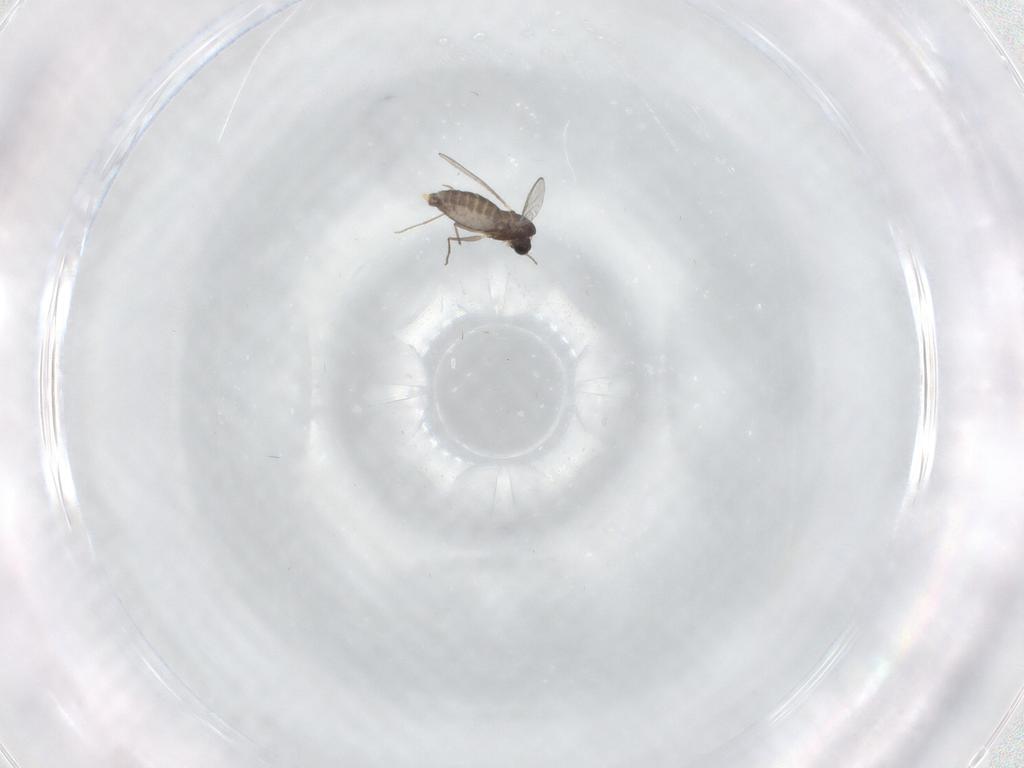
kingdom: Animalia
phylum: Arthropoda
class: Insecta
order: Diptera
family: Chironomidae
